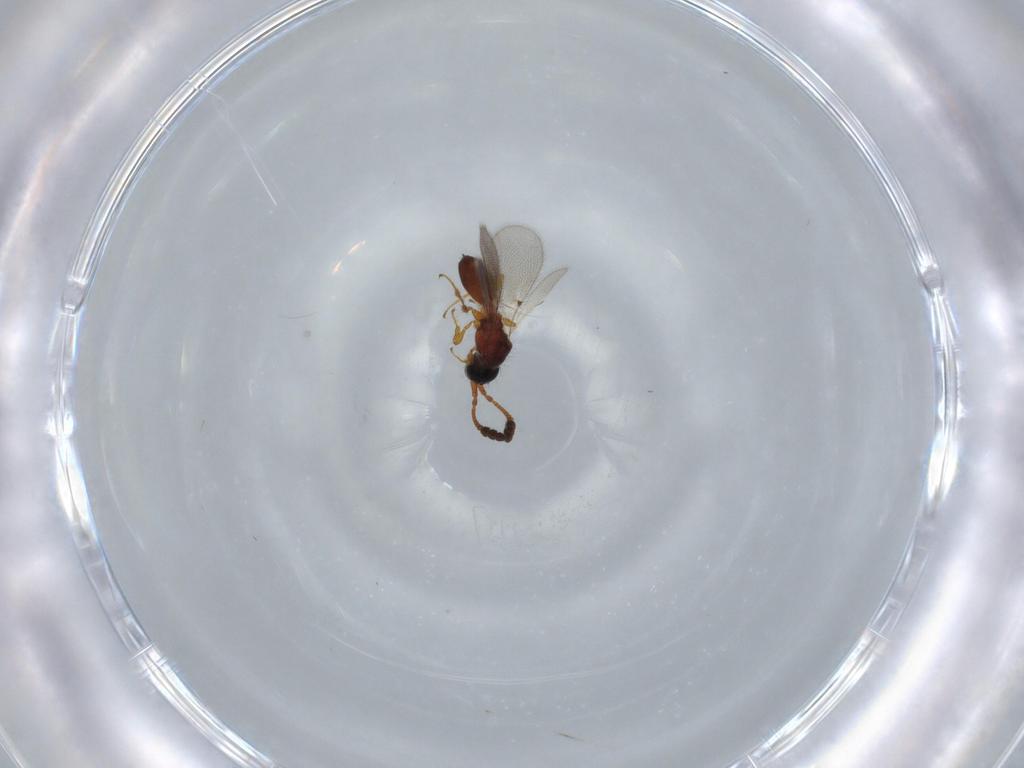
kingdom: Animalia
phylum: Arthropoda
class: Insecta
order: Hymenoptera
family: Diapriidae
